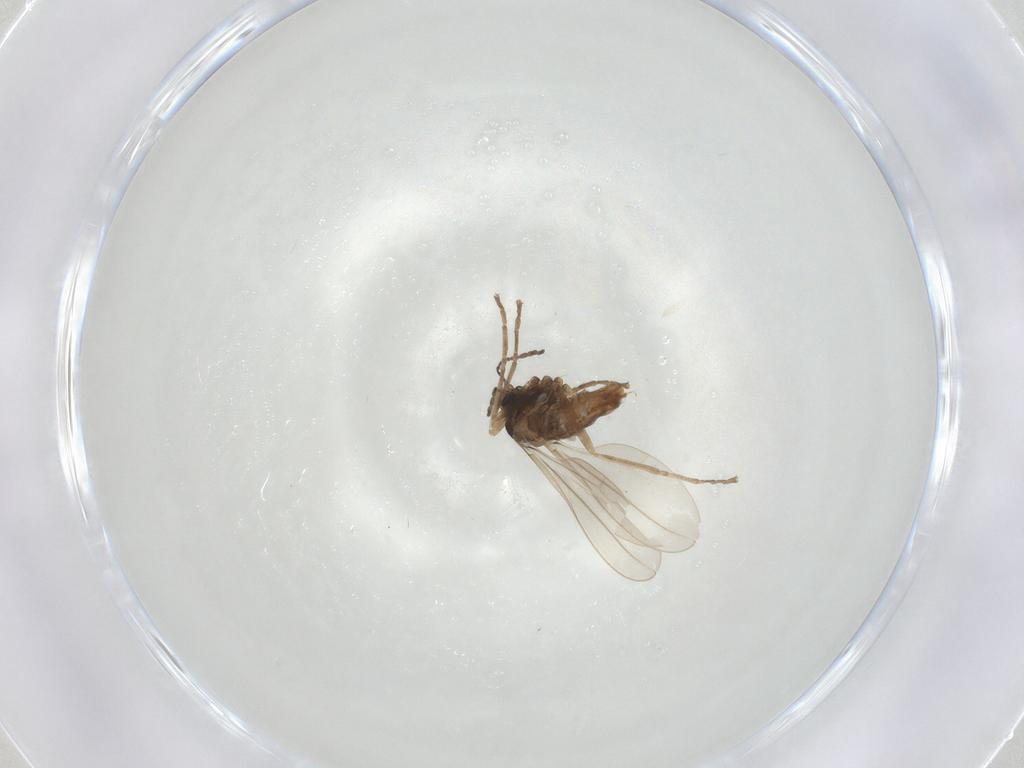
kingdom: Animalia
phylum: Arthropoda
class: Insecta
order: Diptera
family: Cecidomyiidae
